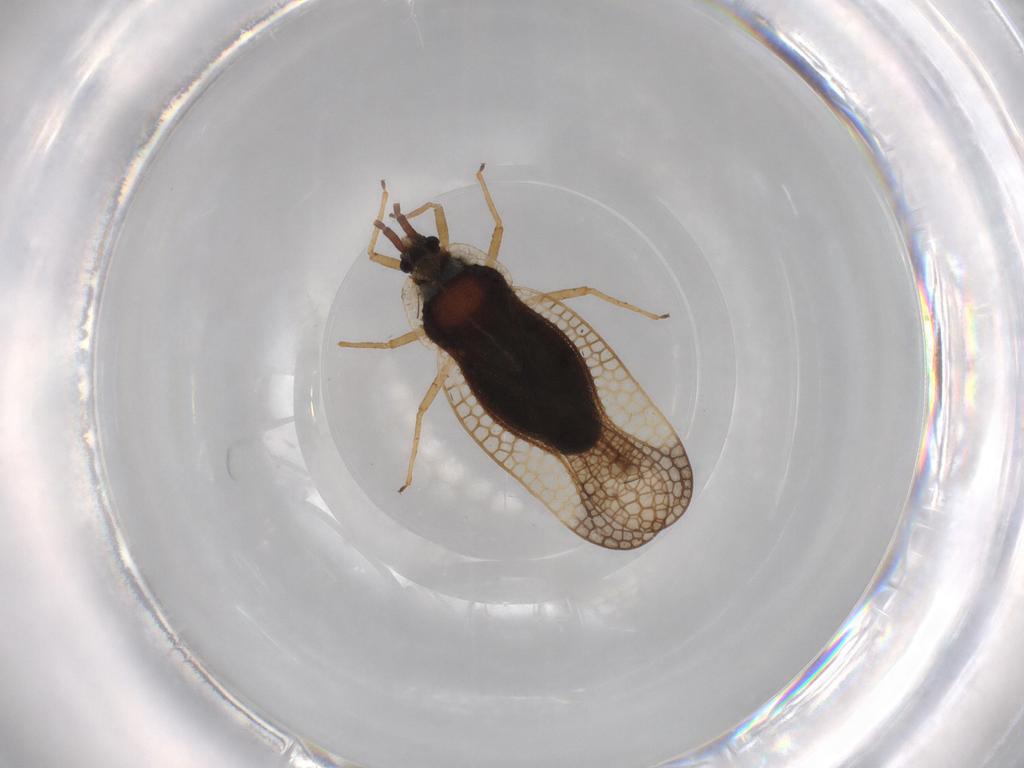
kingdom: Animalia
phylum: Arthropoda
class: Insecta
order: Hemiptera
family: Tingidae
